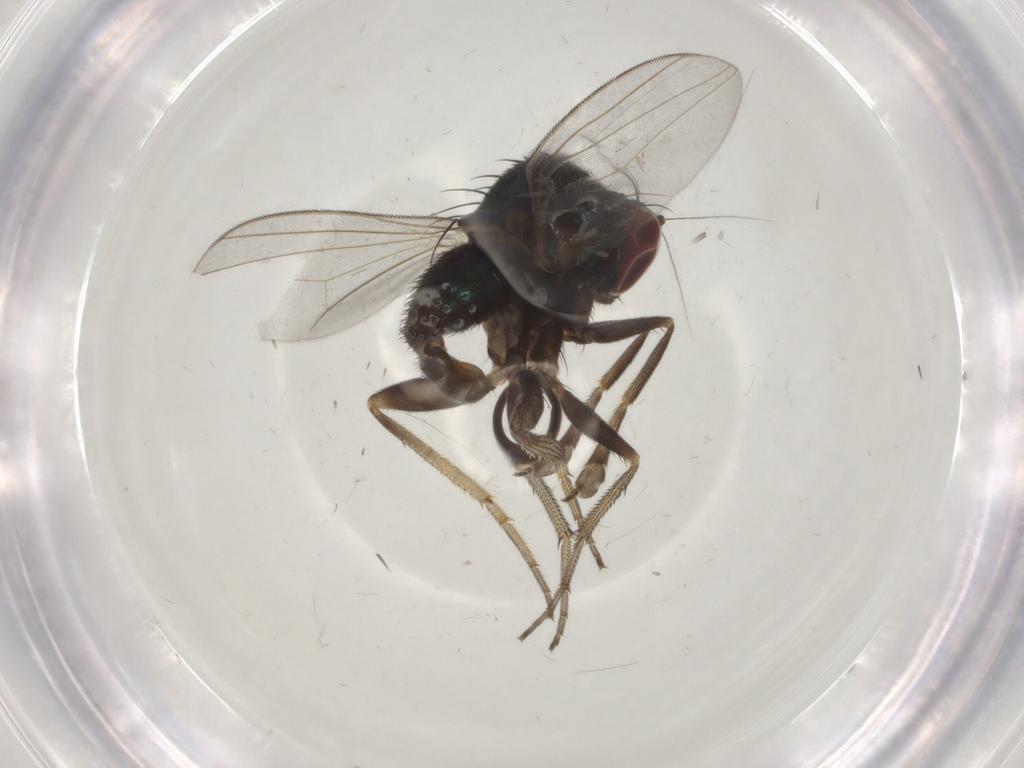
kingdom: Animalia
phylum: Arthropoda
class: Insecta
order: Diptera
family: Dolichopodidae
